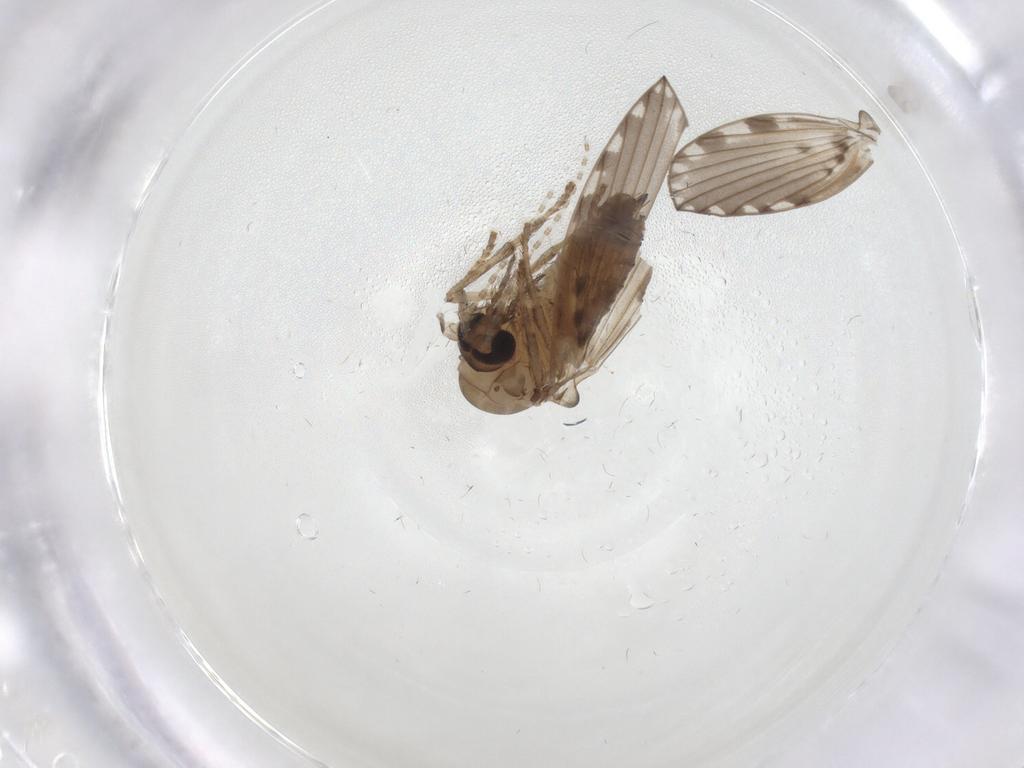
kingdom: Animalia
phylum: Arthropoda
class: Insecta
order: Diptera
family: Psychodidae
